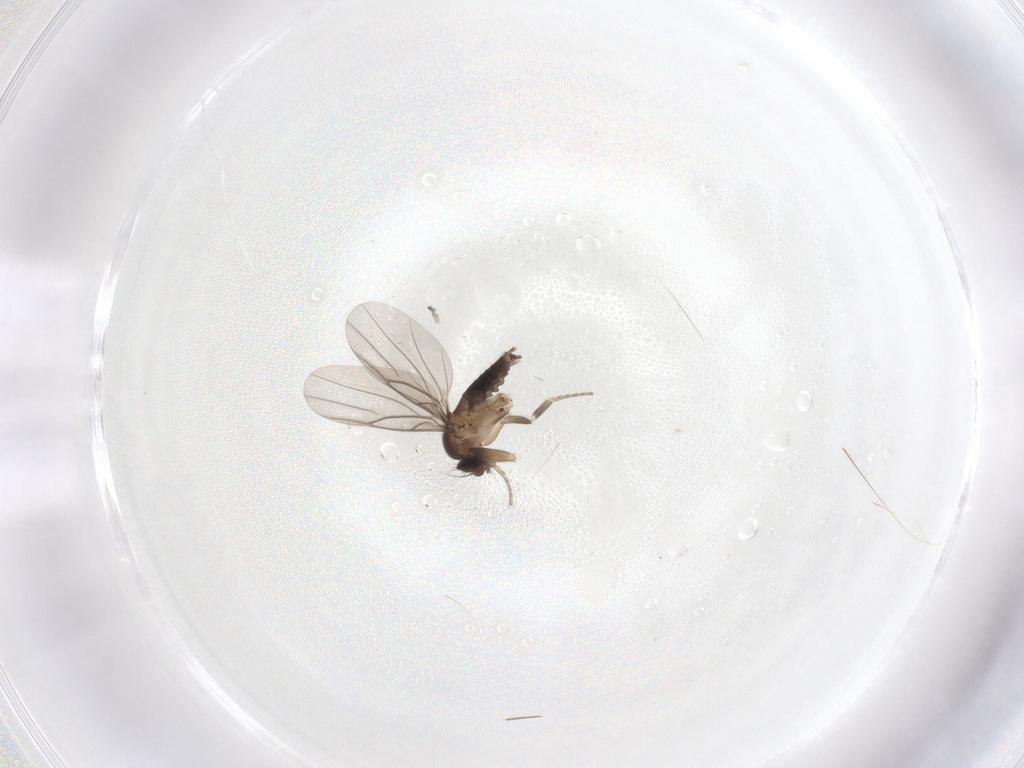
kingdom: Animalia
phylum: Arthropoda
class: Insecta
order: Diptera
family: Phoridae
